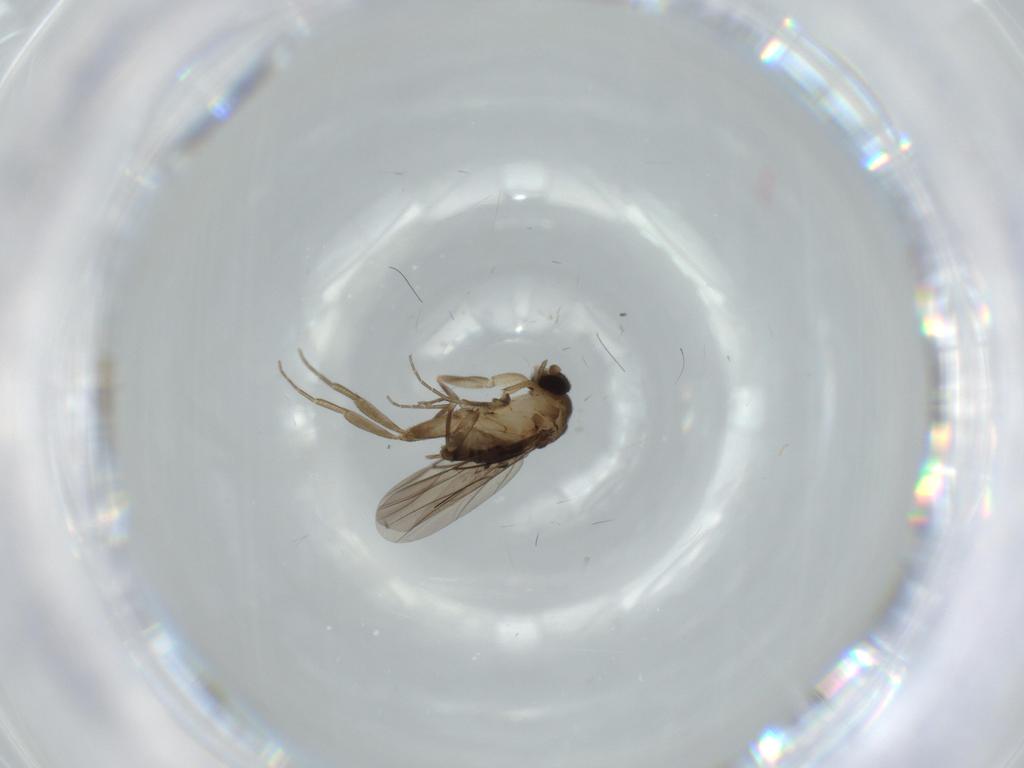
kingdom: Animalia
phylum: Arthropoda
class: Insecta
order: Diptera
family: Phoridae
